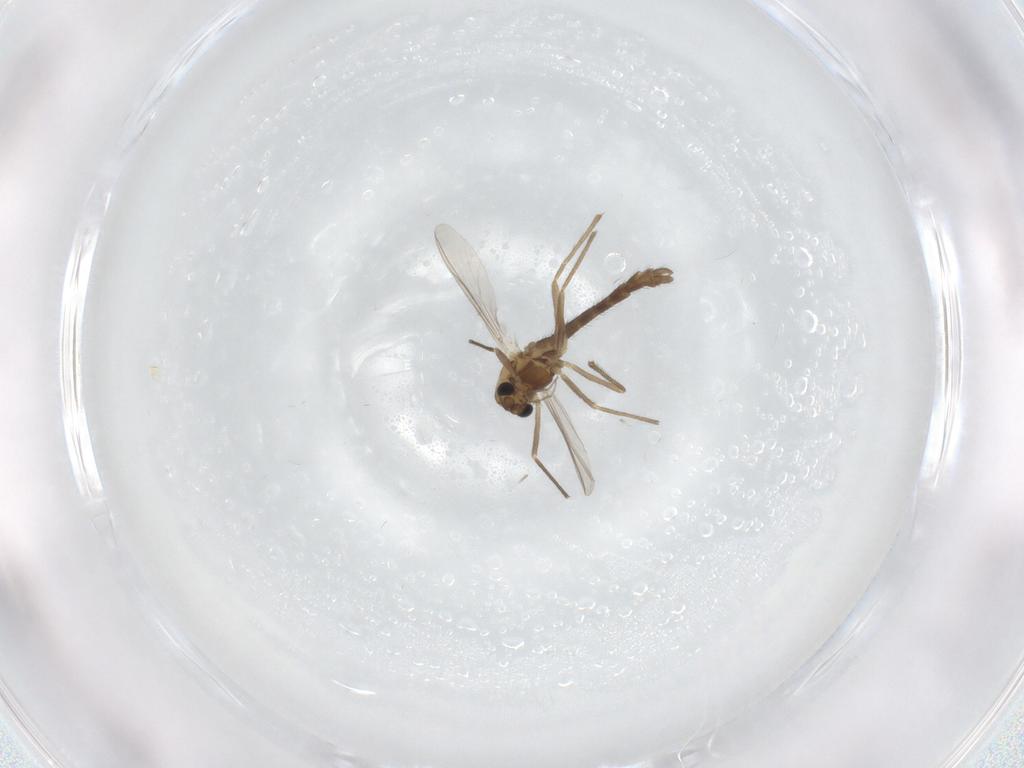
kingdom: Animalia
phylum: Arthropoda
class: Insecta
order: Diptera
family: Chironomidae
